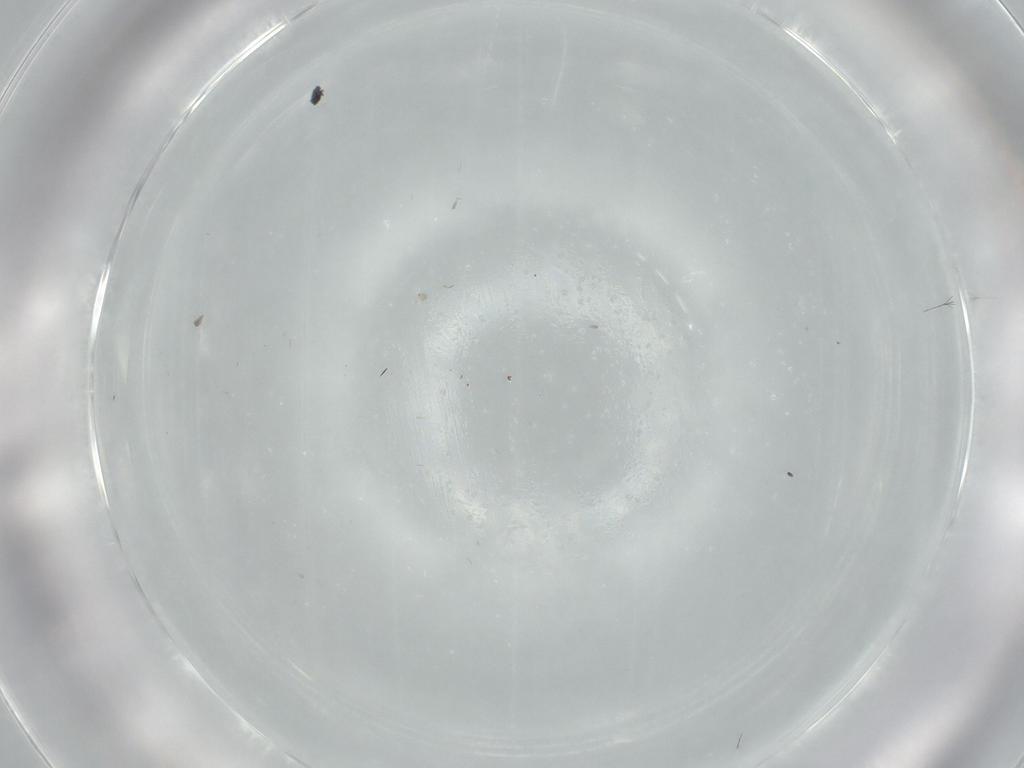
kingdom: Animalia
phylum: Arthropoda
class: Insecta
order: Hemiptera
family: Aleyrodidae
